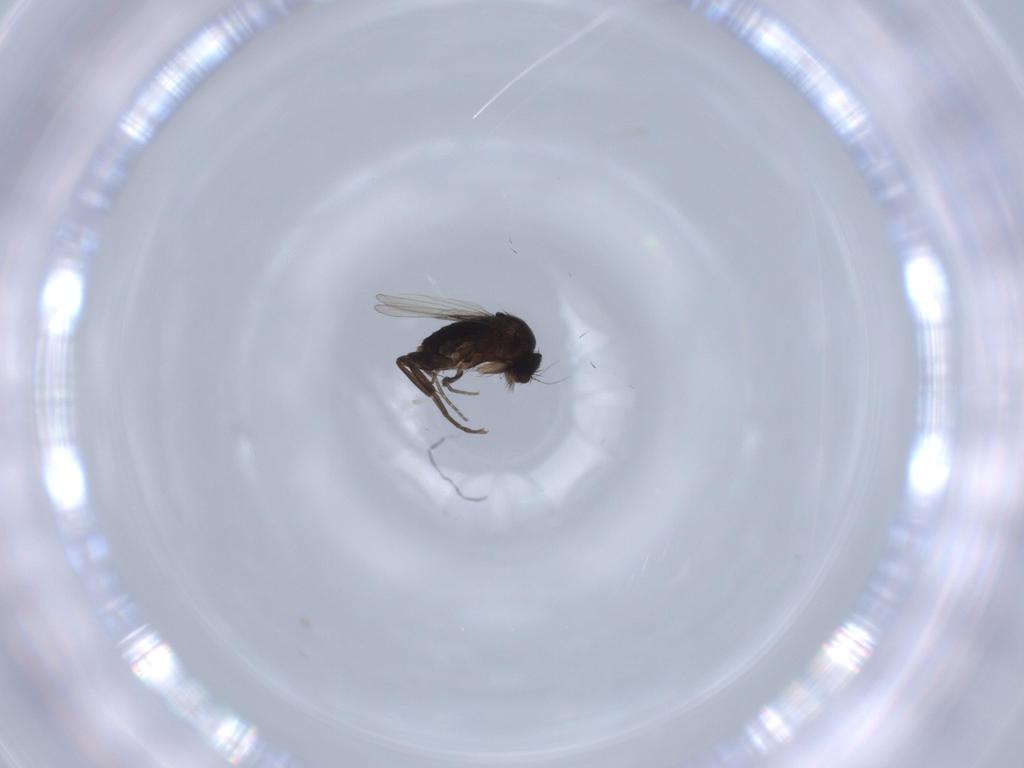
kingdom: Animalia
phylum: Arthropoda
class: Insecta
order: Diptera
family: Phoridae
